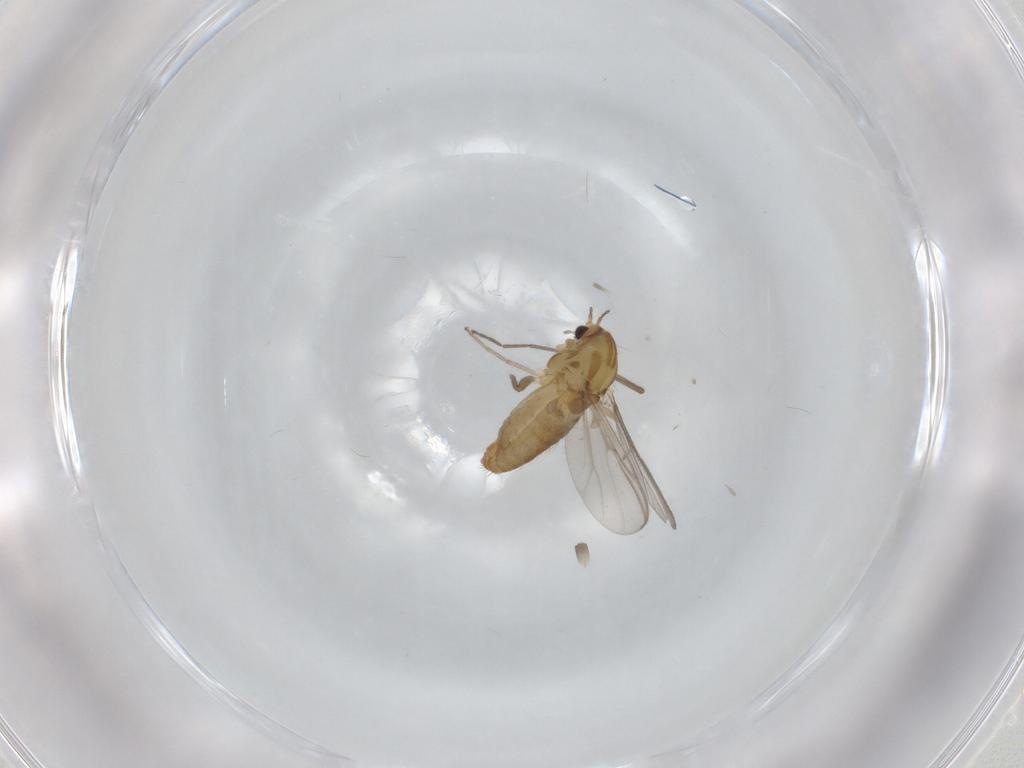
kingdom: Animalia
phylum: Arthropoda
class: Insecta
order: Diptera
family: Chironomidae
